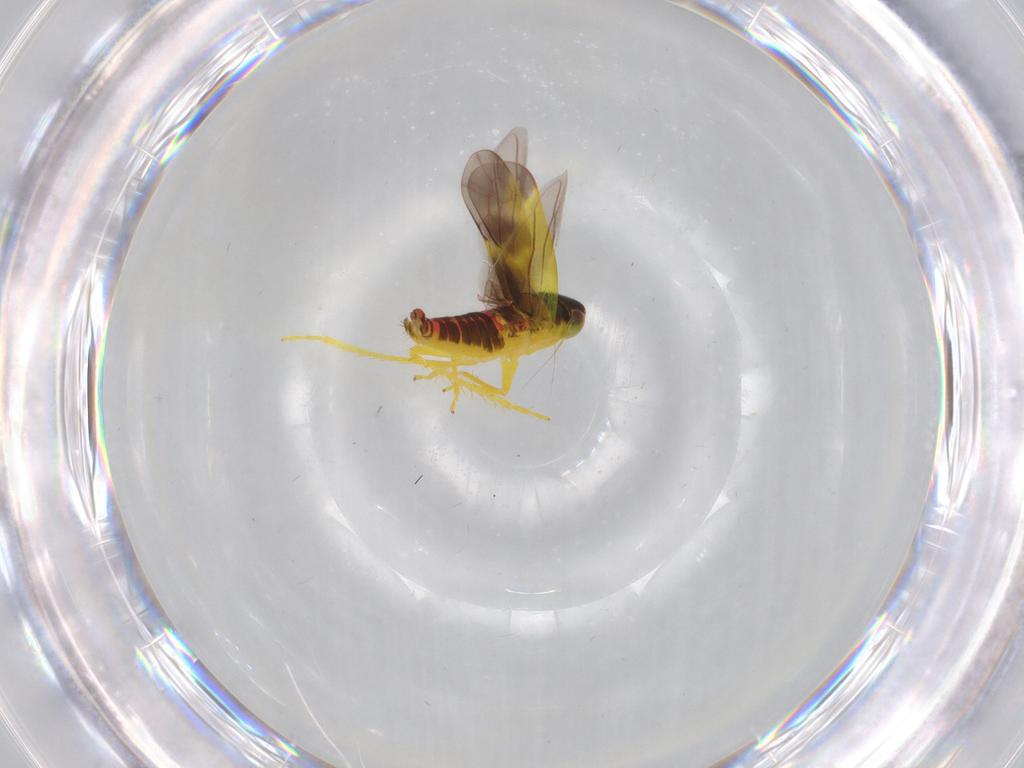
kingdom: Animalia
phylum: Arthropoda
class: Insecta
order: Hemiptera
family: Cicadellidae
